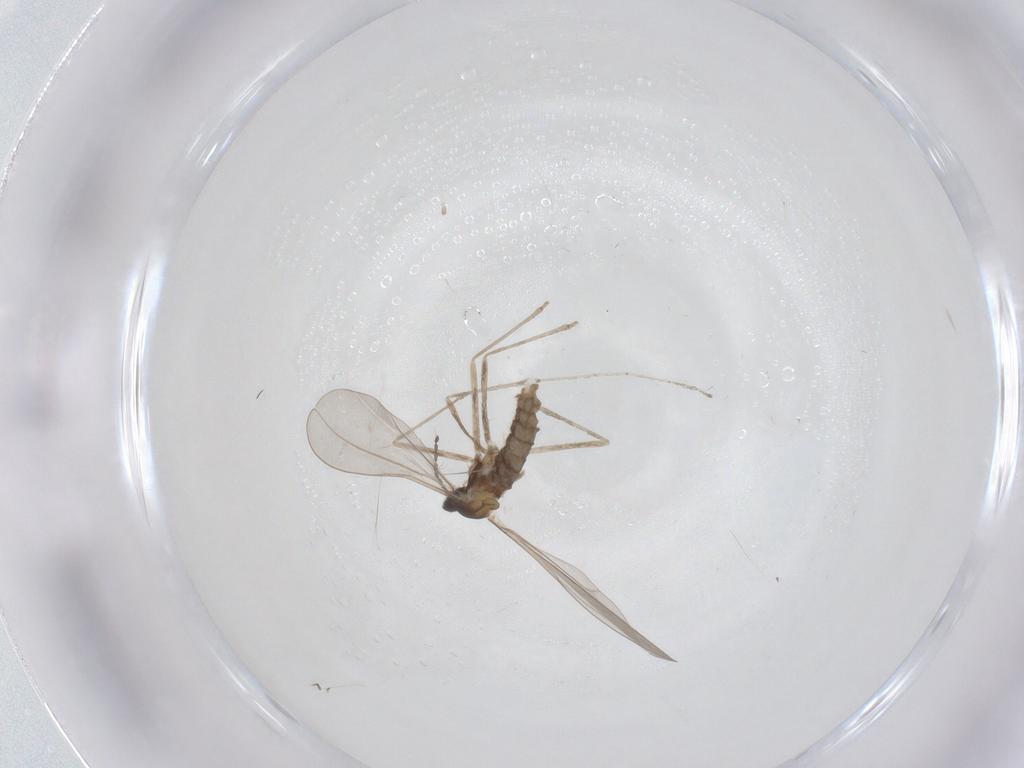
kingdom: Animalia
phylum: Arthropoda
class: Insecta
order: Diptera
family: Cecidomyiidae
